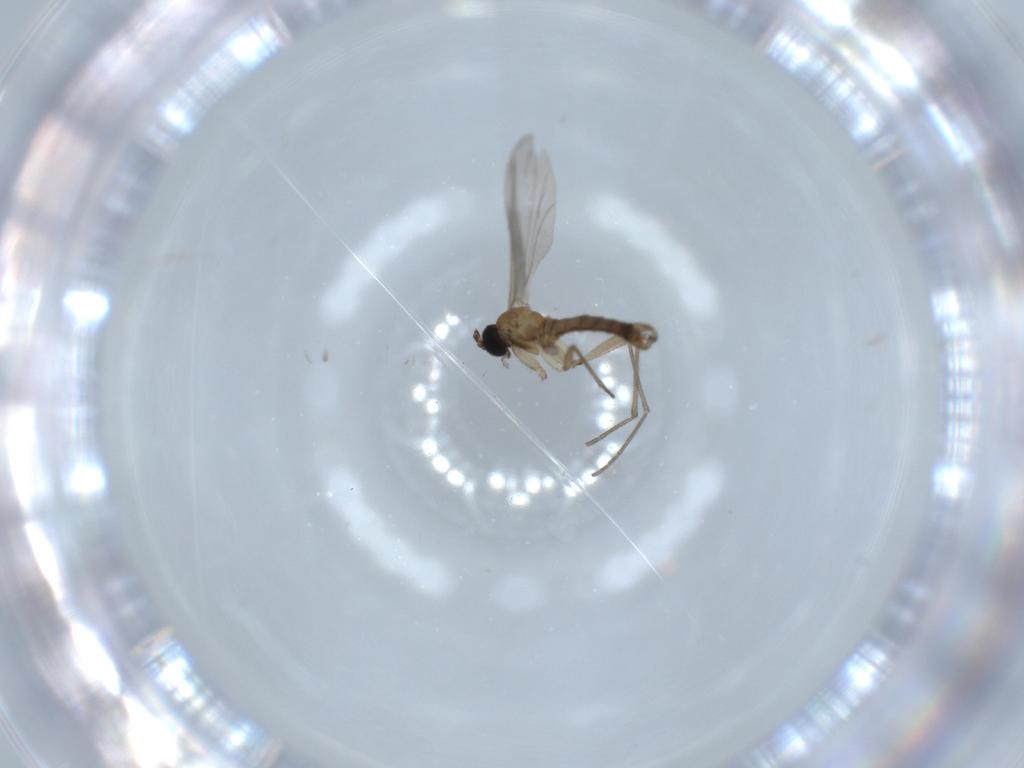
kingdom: Animalia
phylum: Arthropoda
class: Insecta
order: Diptera
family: Sciaridae
